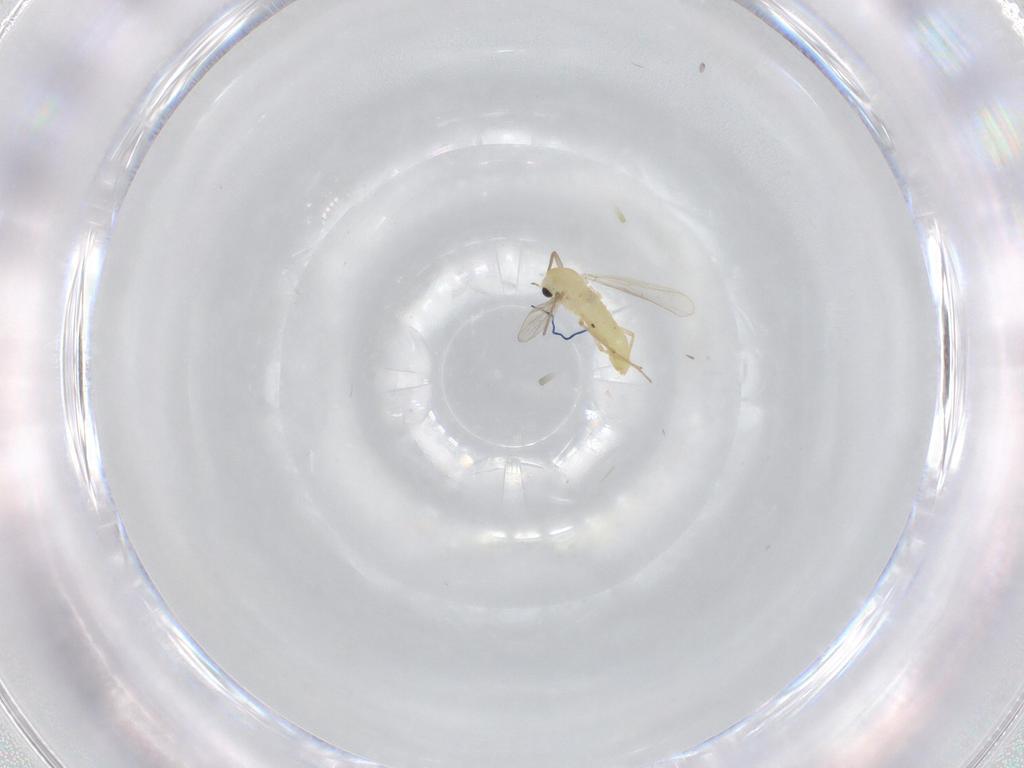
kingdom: Animalia
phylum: Arthropoda
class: Insecta
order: Diptera
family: Chironomidae
